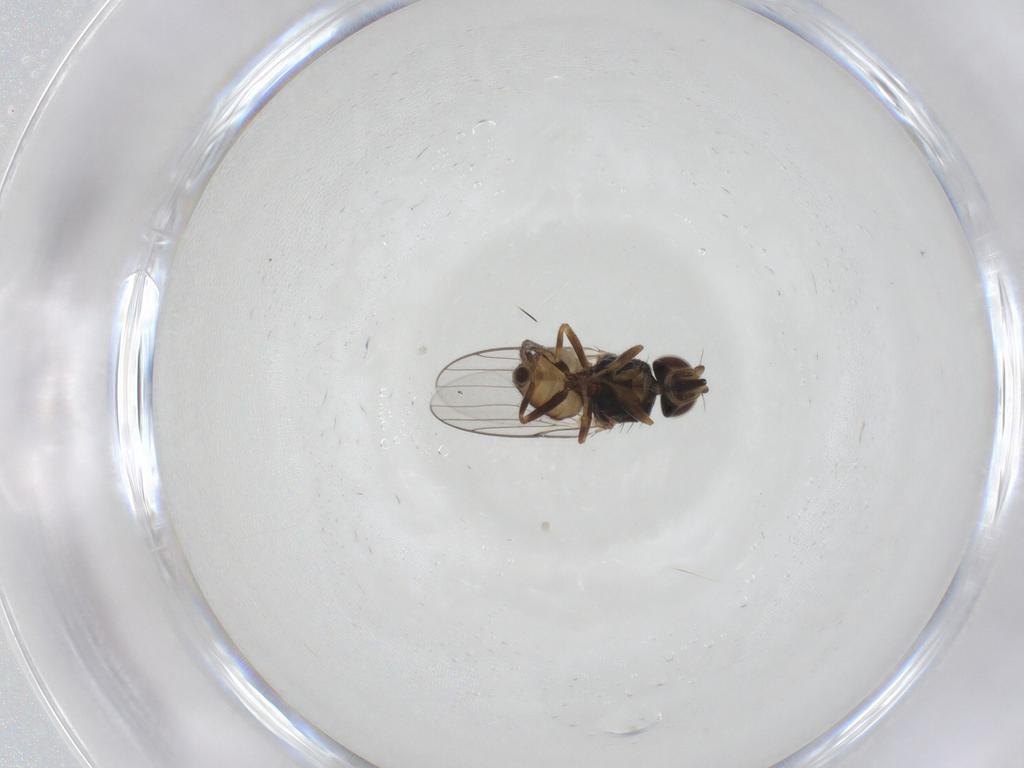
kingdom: Animalia
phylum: Arthropoda
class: Insecta
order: Diptera
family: Chloropidae
